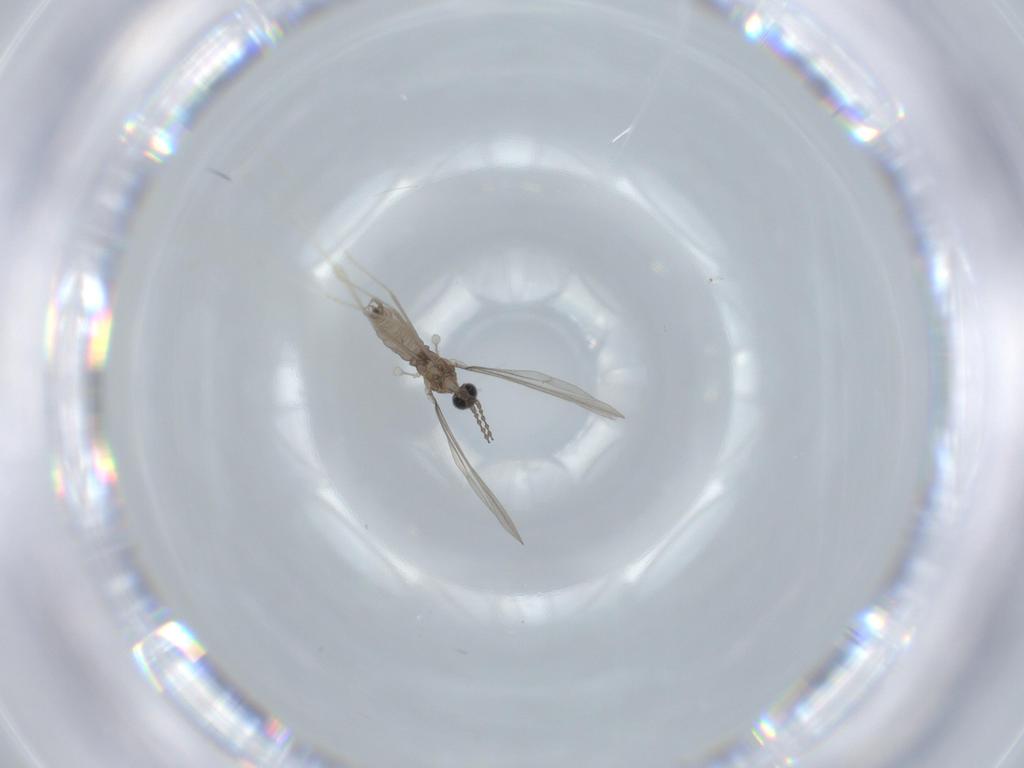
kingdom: Animalia
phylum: Arthropoda
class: Insecta
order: Diptera
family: Cecidomyiidae
